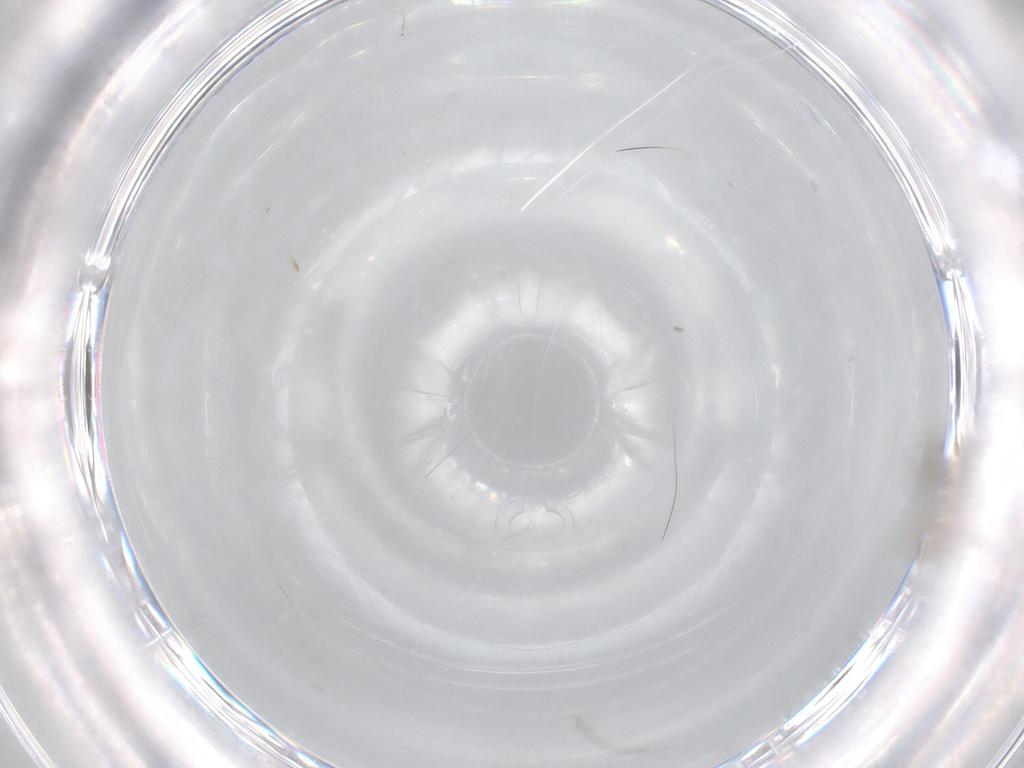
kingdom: Animalia
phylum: Arthropoda
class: Insecta
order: Diptera
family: Cecidomyiidae
